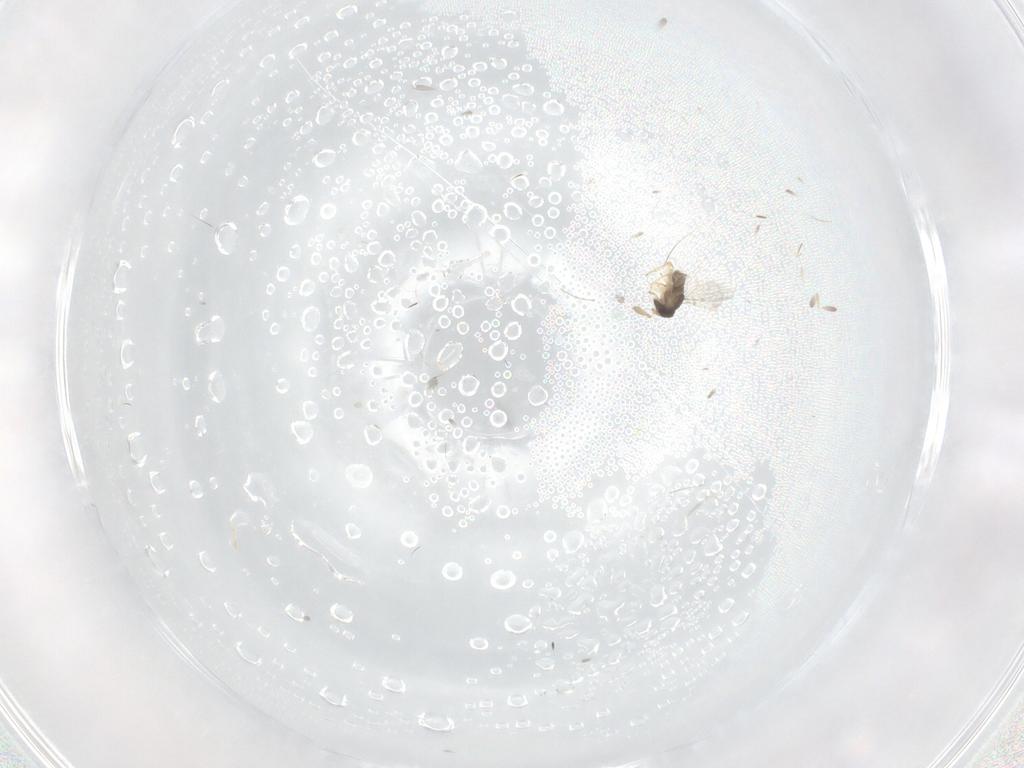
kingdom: Animalia
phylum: Arthropoda
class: Insecta
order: Hymenoptera
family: Encyrtidae
